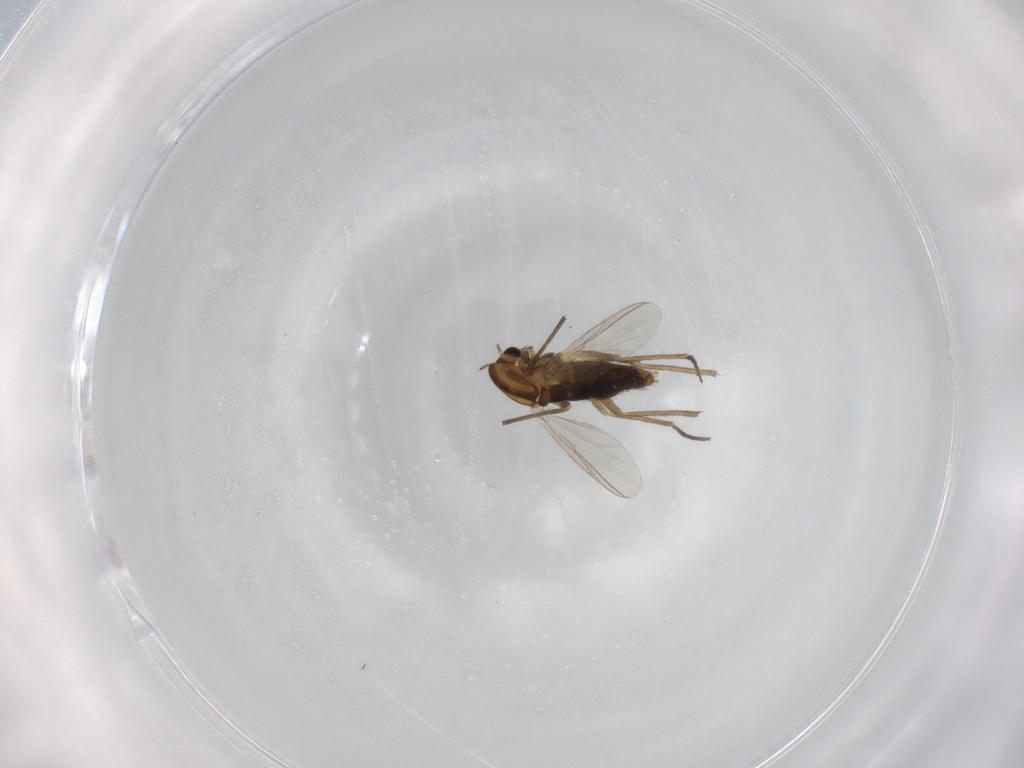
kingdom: Animalia
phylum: Arthropoda
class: Insecta
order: Diptera
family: Chironomidae
